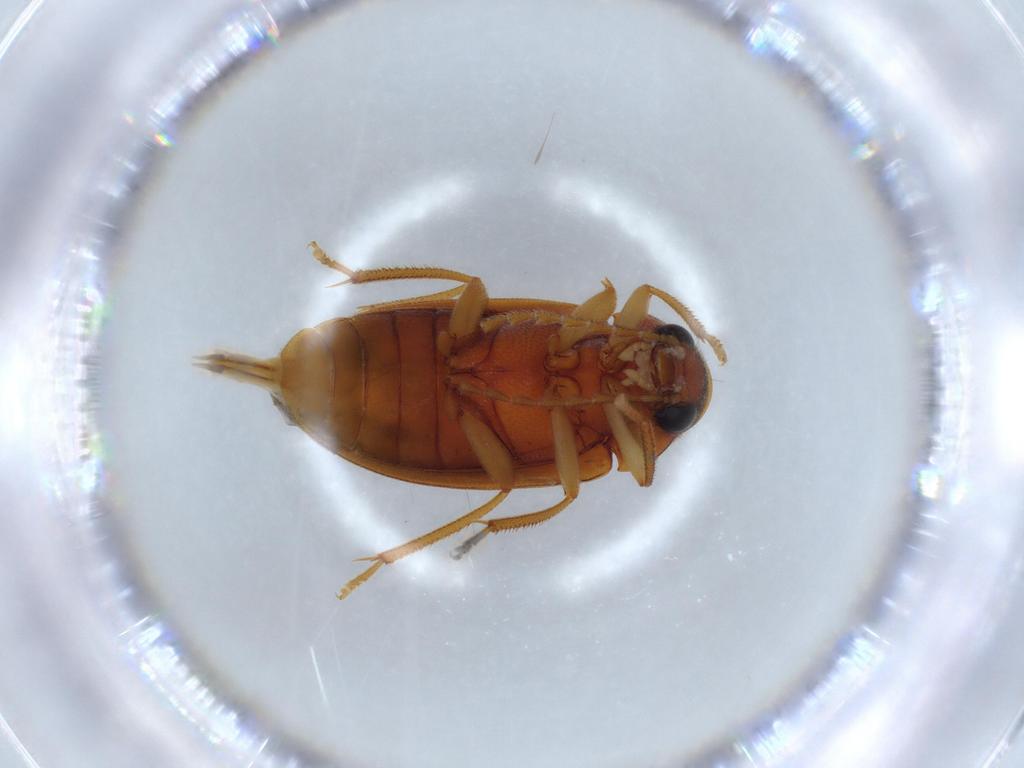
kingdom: Animalia
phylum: Arthropoda
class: Insecta
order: Coleoptera
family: Ptilodactylidae
